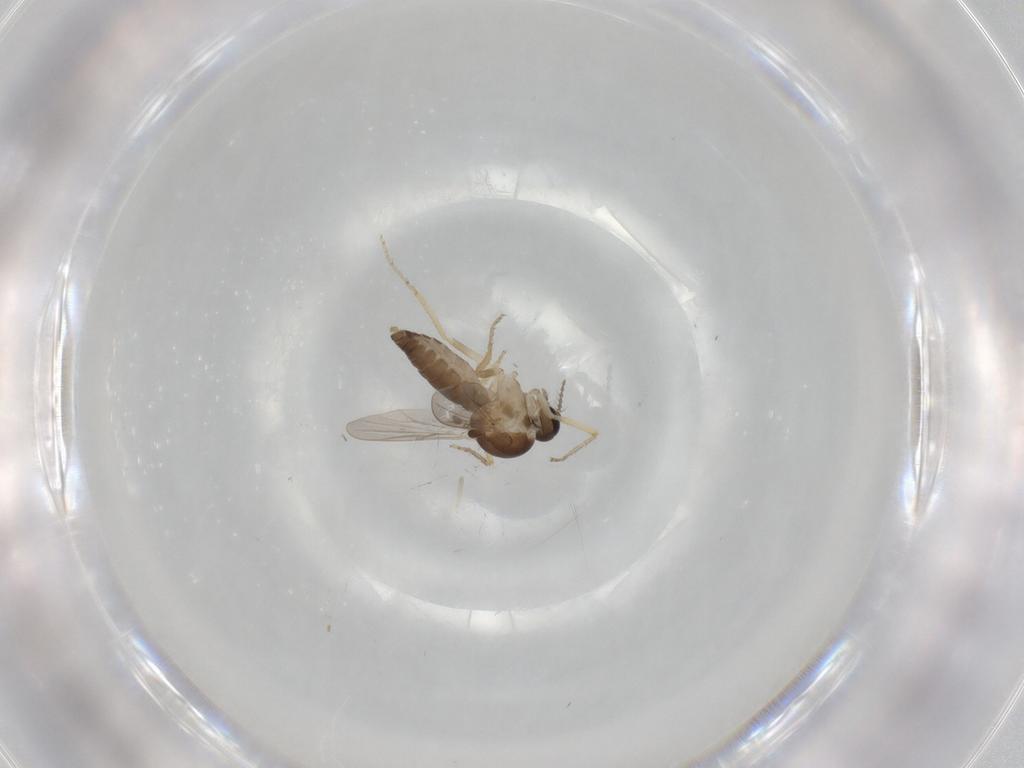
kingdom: Animalia
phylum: Arthropoda
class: Insecta
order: Diptera
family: Ceratopogonidae
